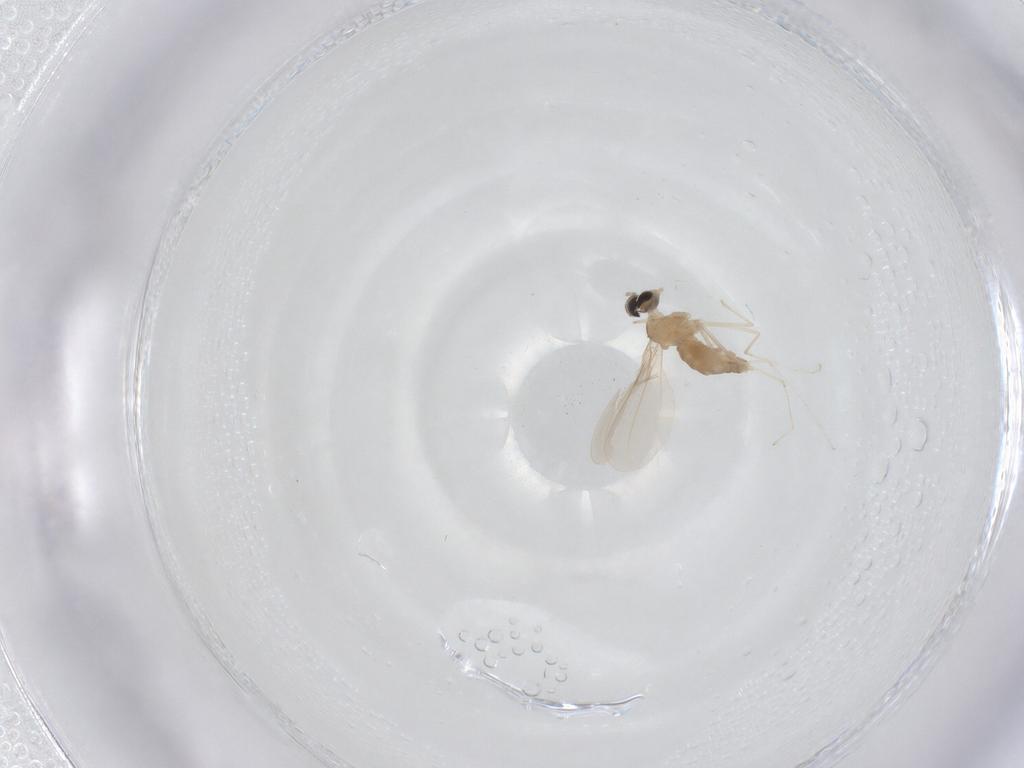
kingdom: Animalia
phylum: Arthropoda
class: Insecta
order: Diptera
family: Cecidomyiidae
